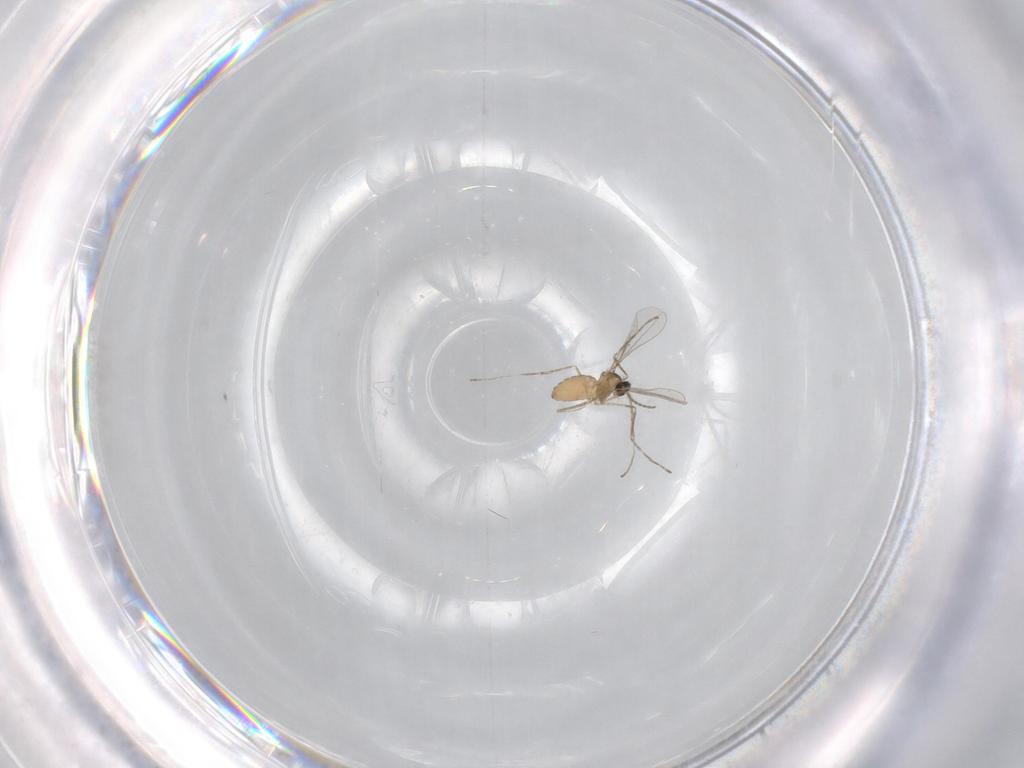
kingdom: Animalia
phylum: Arthropoda
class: Insecta
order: Diptera
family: Cecidomyiidae
